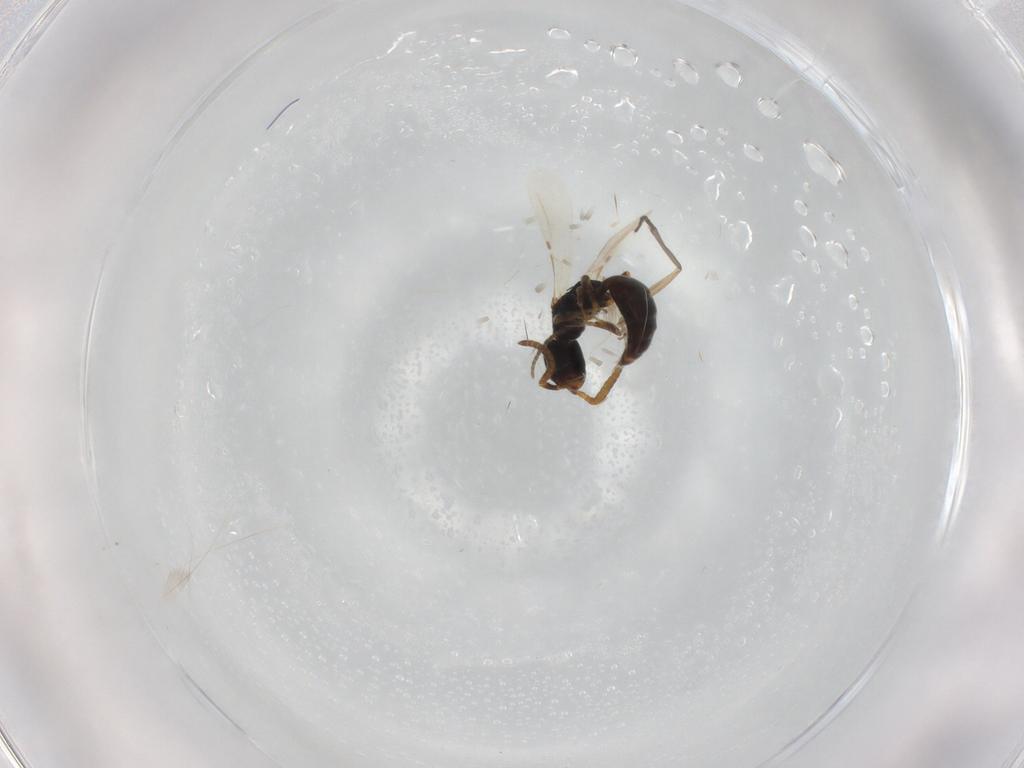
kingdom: Animalia
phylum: Arthropoda
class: Insecta
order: Hymenoptera
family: Bethylidae
